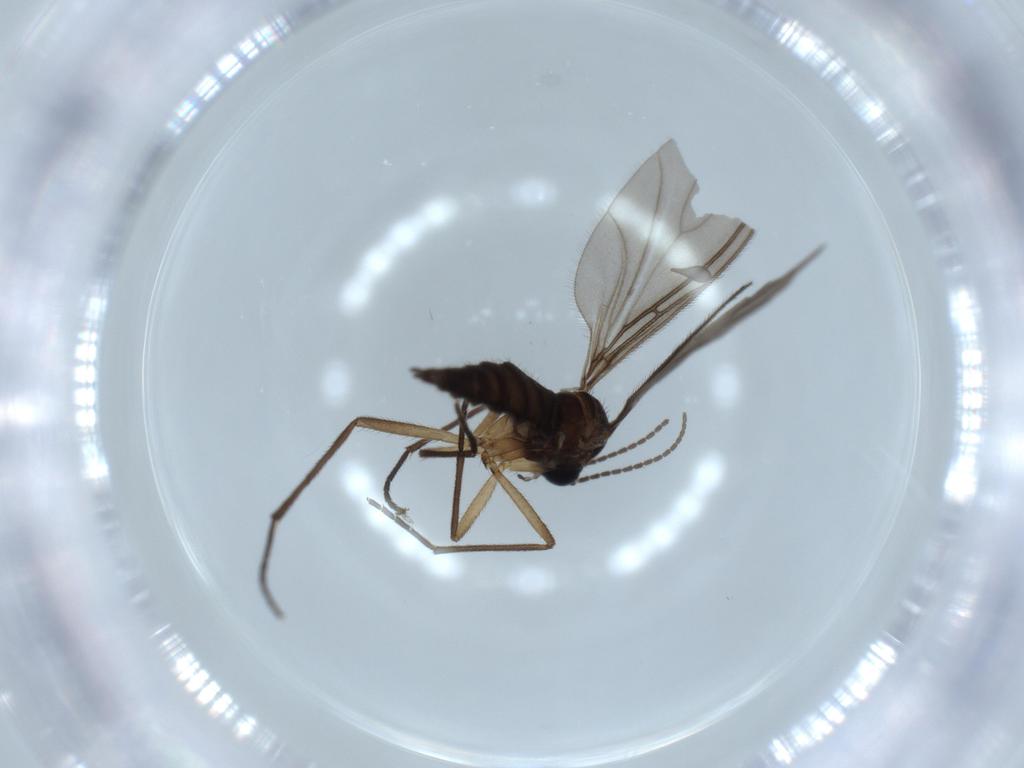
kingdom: Animalia
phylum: Arthropoda
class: Insecta
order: Diptera
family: Sciaridae
